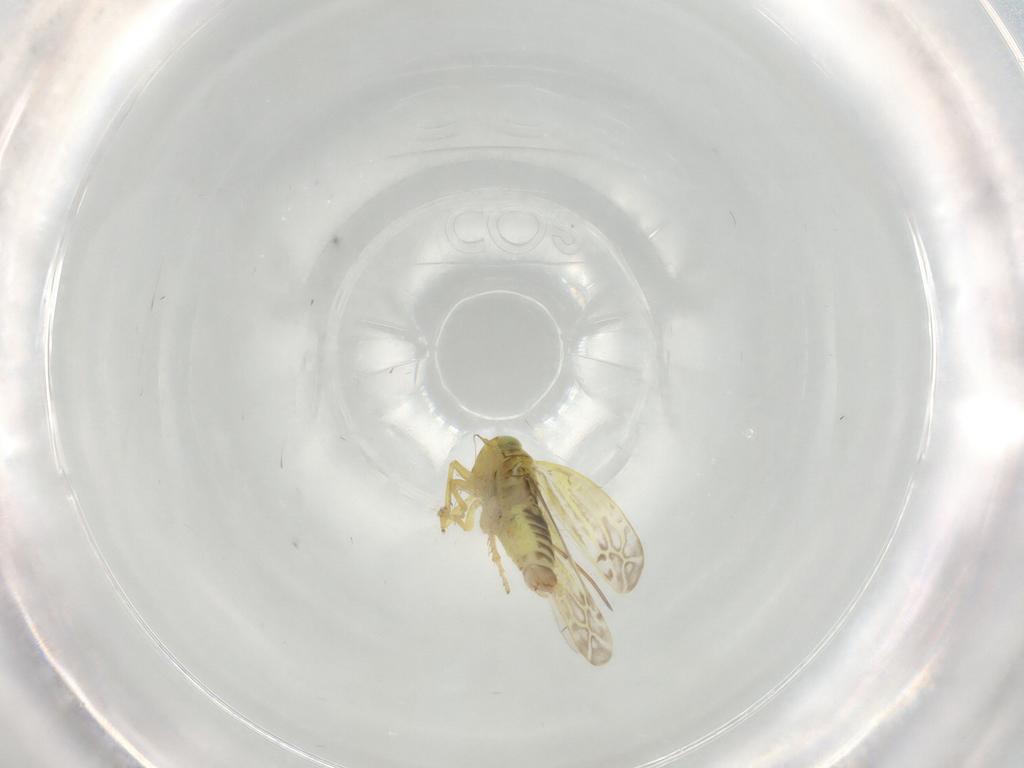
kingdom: Animalia
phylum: Arthropoda
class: Insecta
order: Hemiptera
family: Cicadellidae
